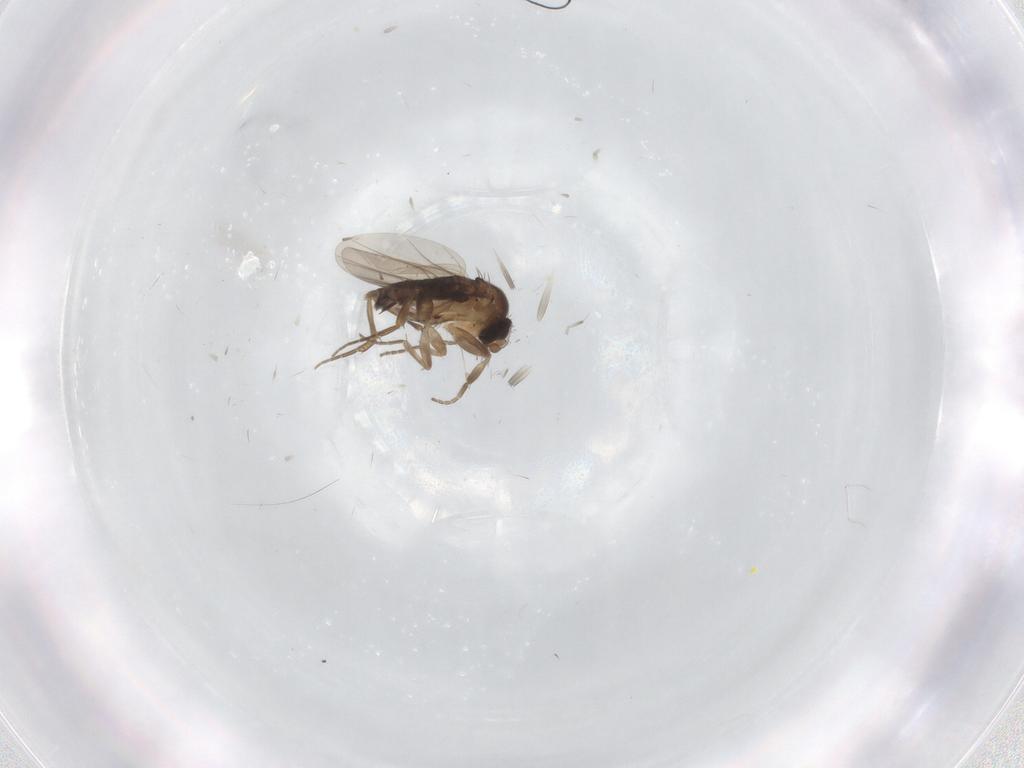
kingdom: Animalia
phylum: Arthropoda
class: Insecta
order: Diptera
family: Phoridae
